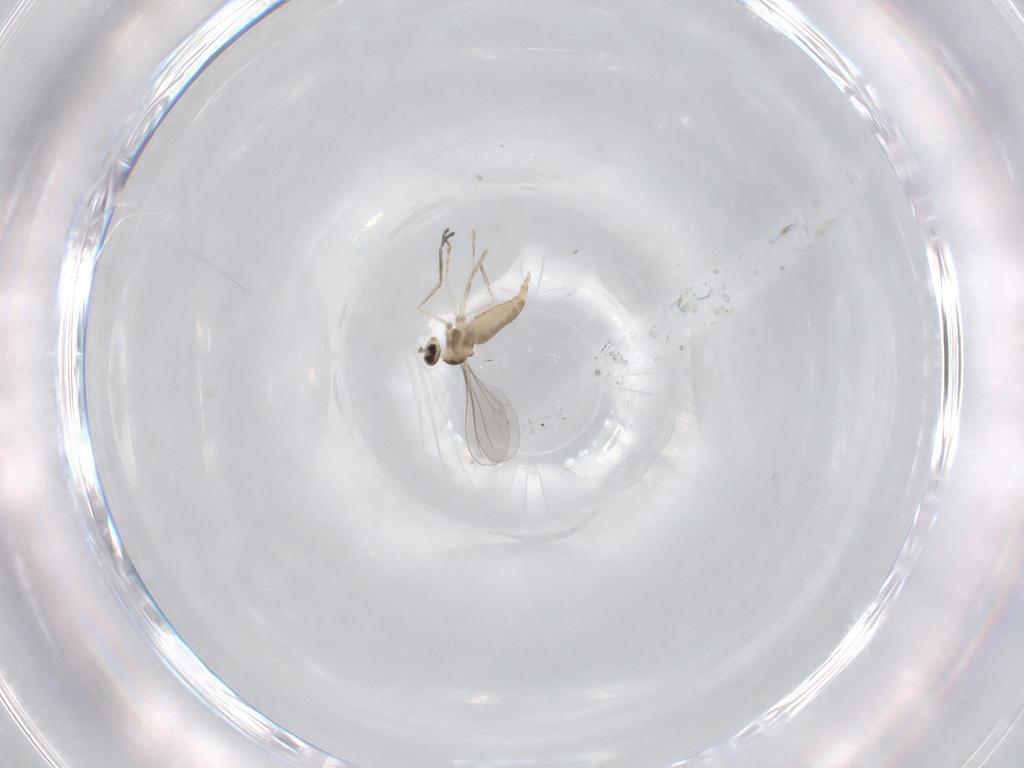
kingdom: Animalia
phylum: Arthropoda
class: Insecta
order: Diptera
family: Cecidomyiidae
